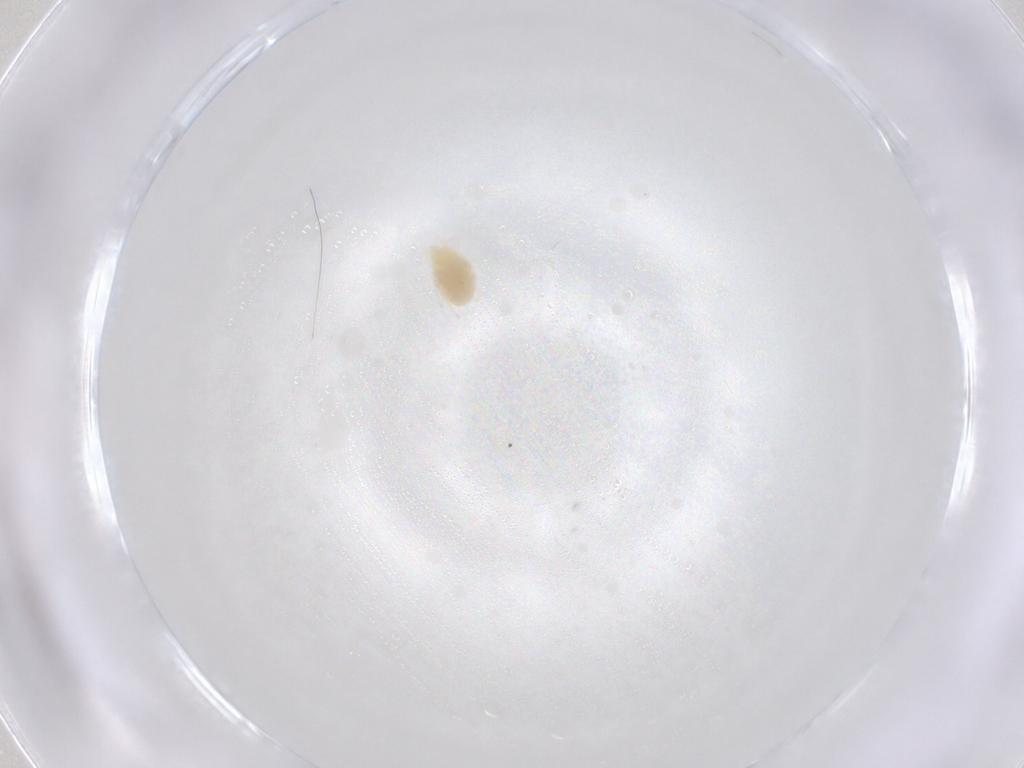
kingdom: Animalia
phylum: Arthropoda
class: Arachnida
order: Trombidiformes
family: Tetranychidae
